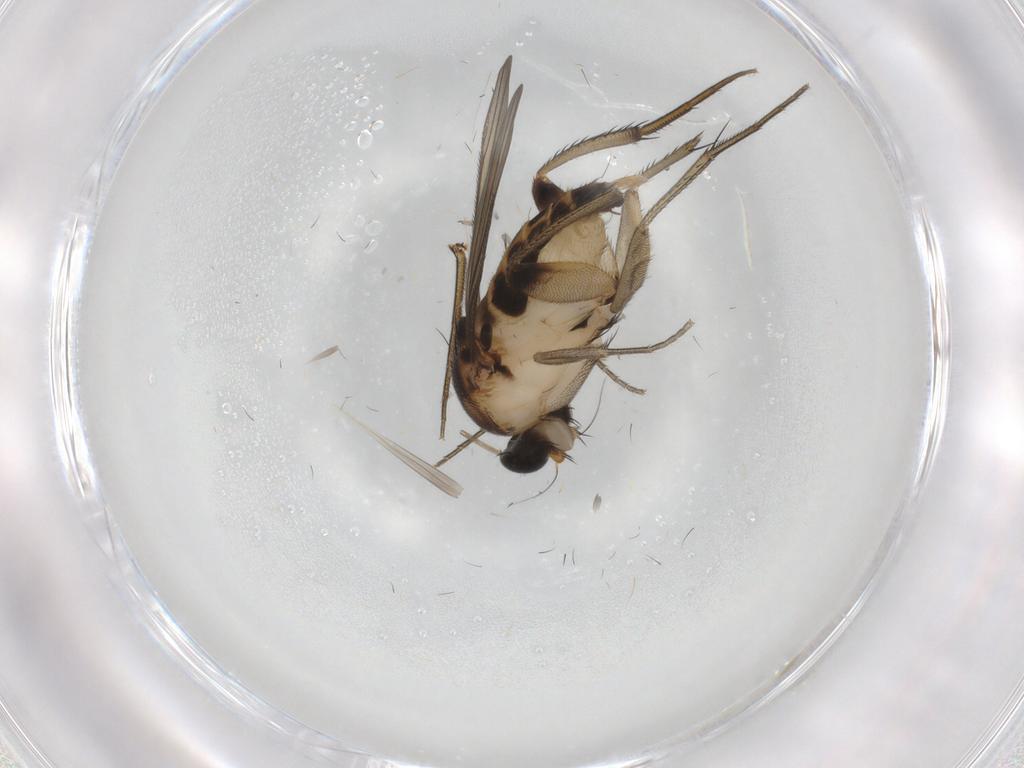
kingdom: Animalia
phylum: Arthropoda
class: Insecta
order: Diptera
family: Phoridae
